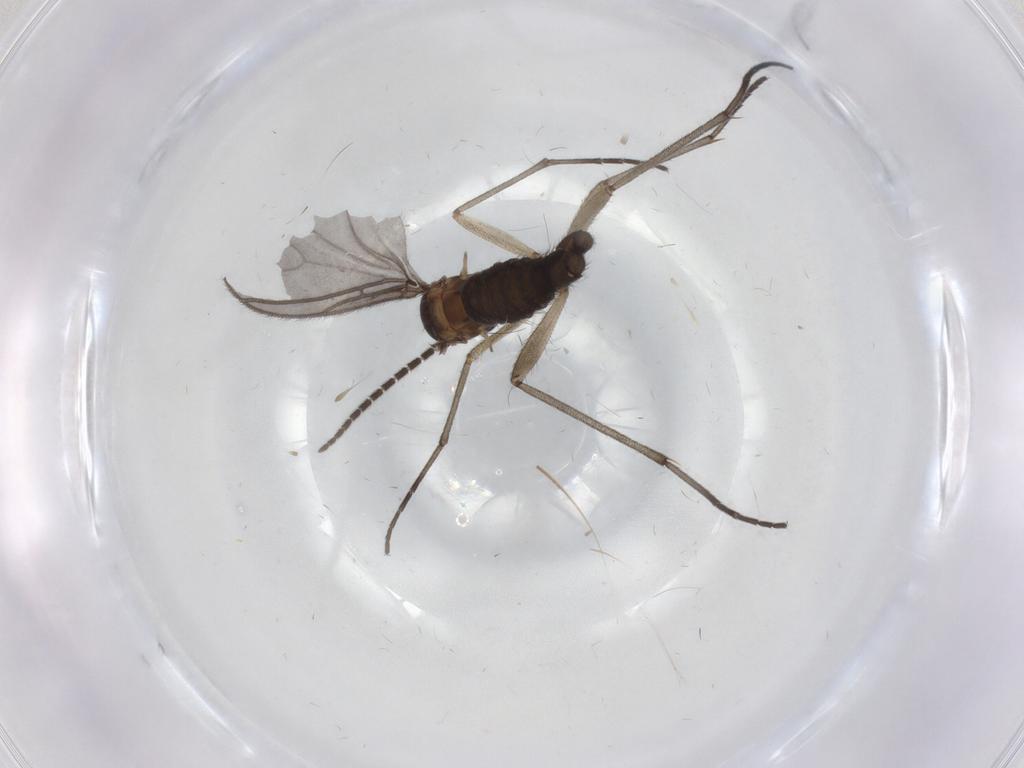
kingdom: Animalia
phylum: Arthropoda
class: Insecta
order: Diptera
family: Sciaridae
